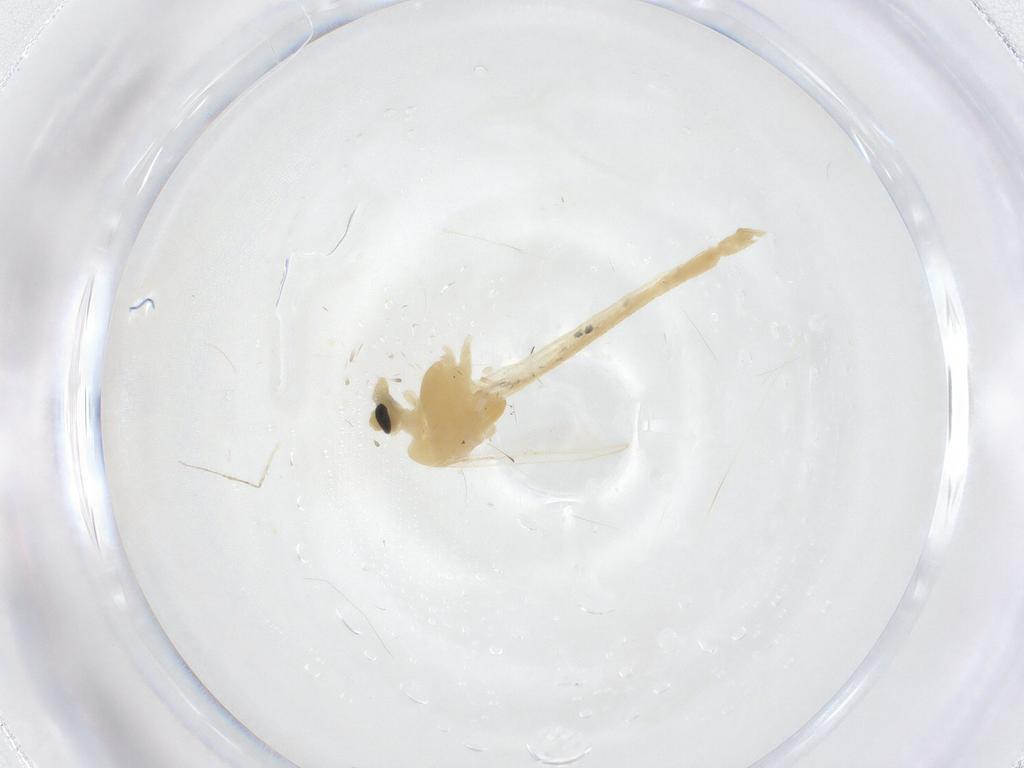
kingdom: Animalia
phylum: Arthropoda
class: Insecta
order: Diptera
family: Chironomidae
